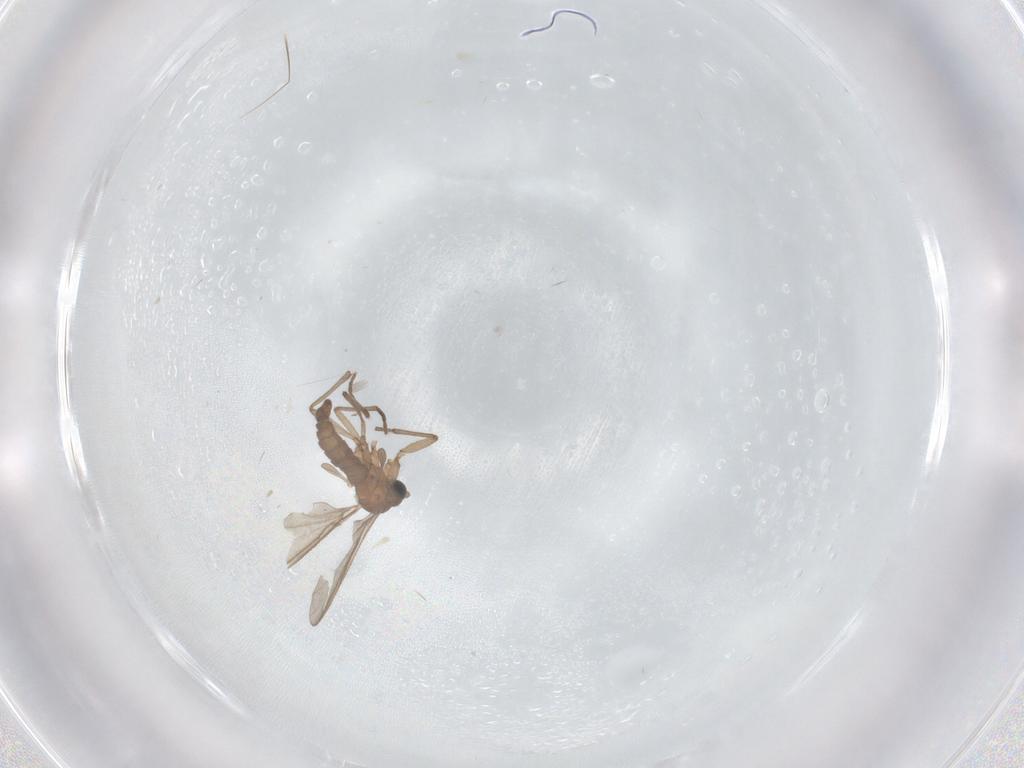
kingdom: Animalia
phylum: Arthropoda
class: Insecta
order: Diptera
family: Sciaridae
